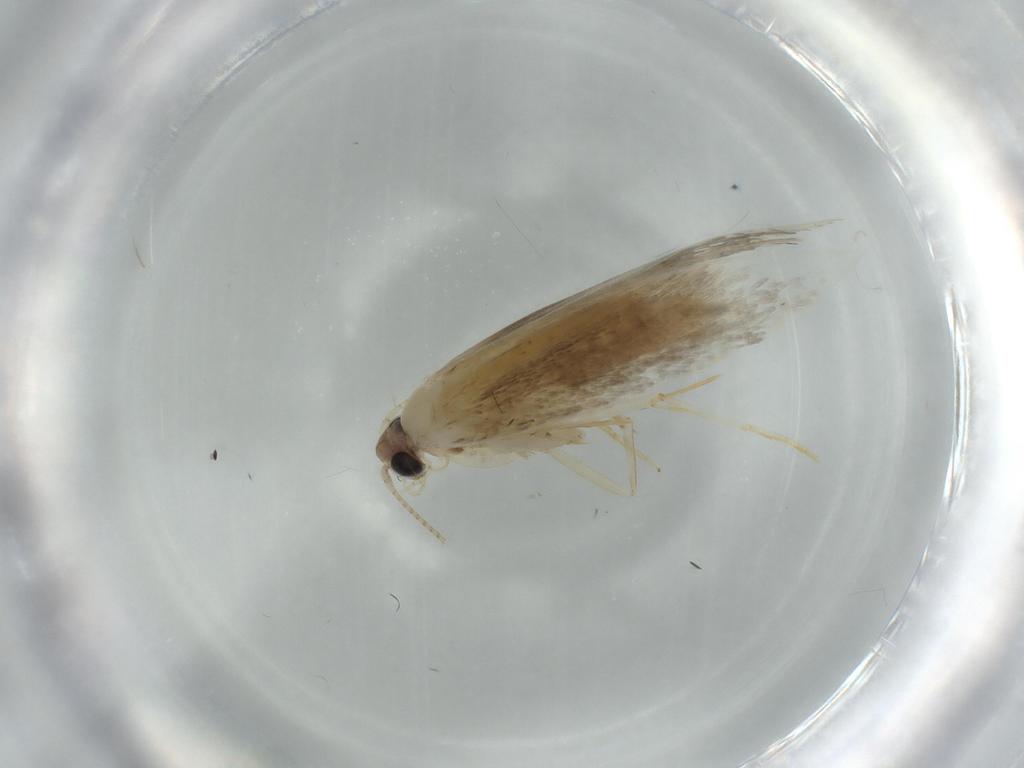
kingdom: Animalia
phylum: Arthropoda
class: Insecta
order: Lepidoptera
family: Tineidae
